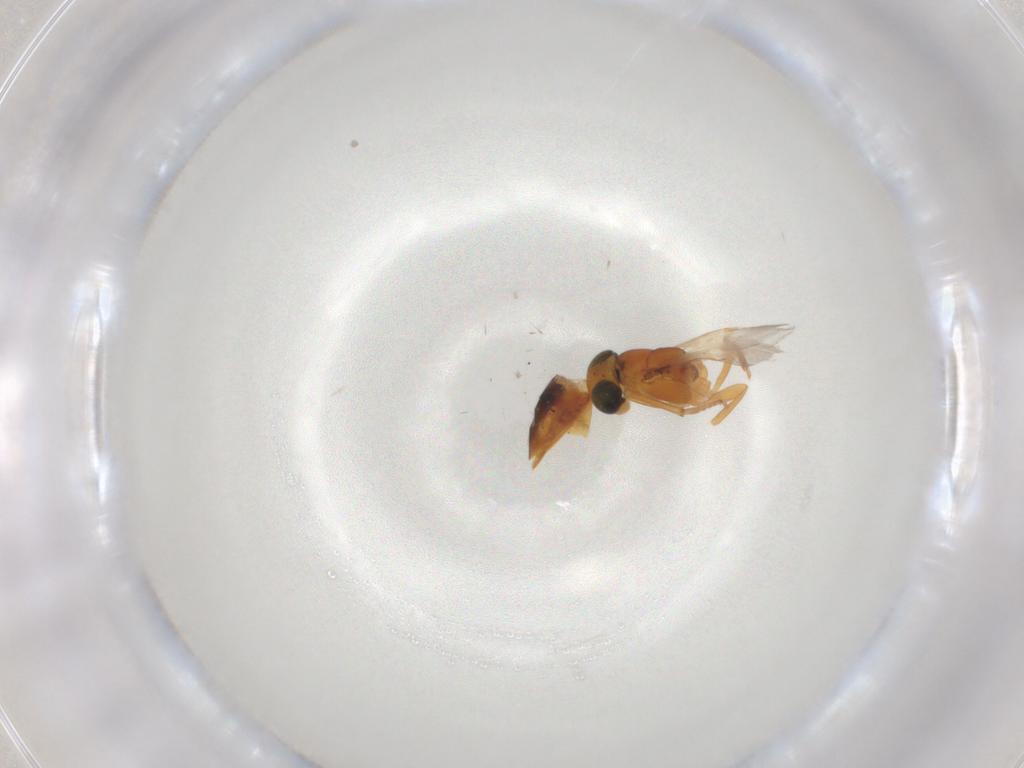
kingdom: Animalia
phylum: Arthropoda
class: Insecta
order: Hymenoptera
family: Encyrtidae
